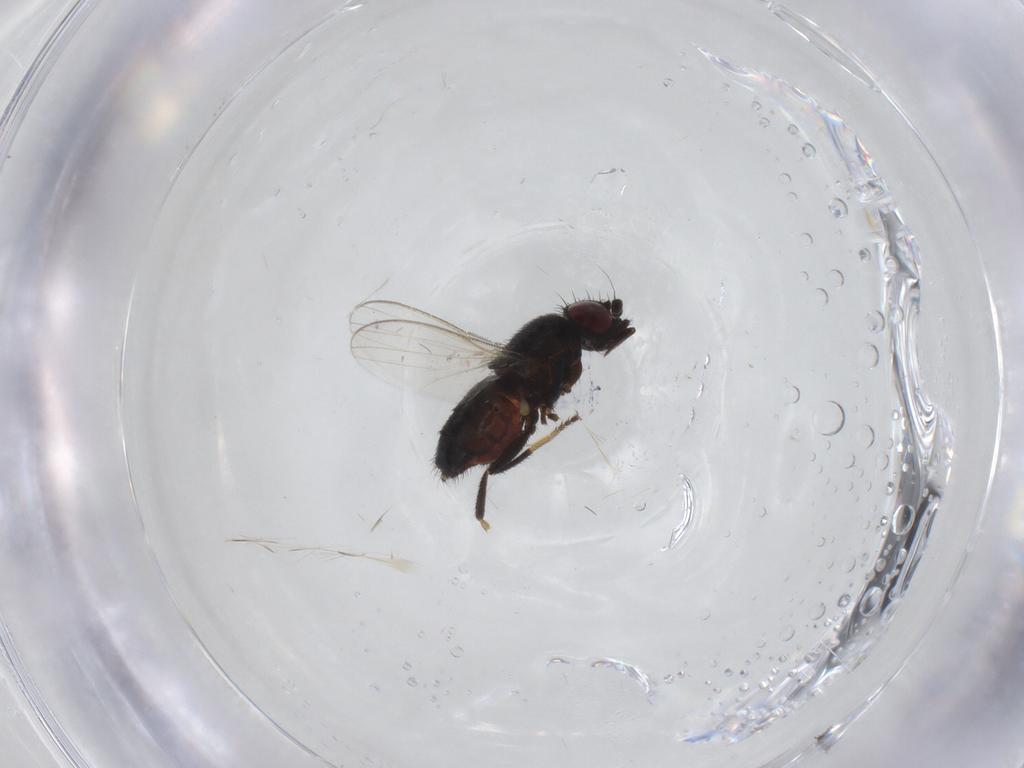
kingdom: Animalia
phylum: Arthropoda
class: Insecta
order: Diptera
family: Milichiidae
